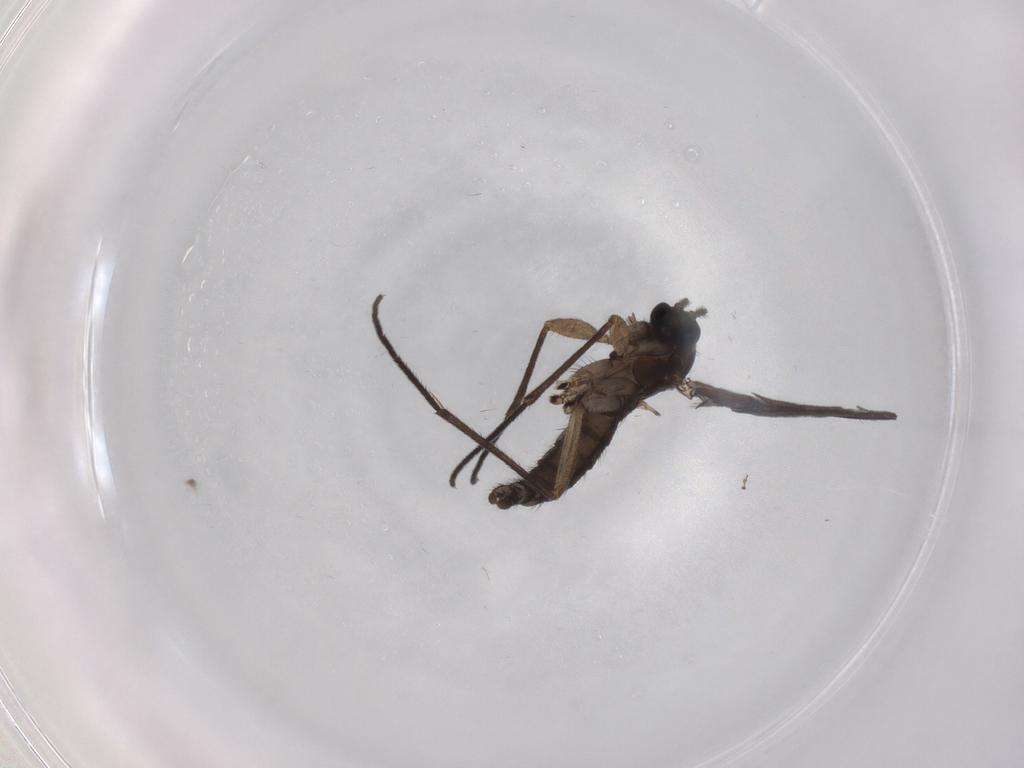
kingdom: Animalia
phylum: Arthropoda
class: Insecta
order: Diptera
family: Sciaridae
